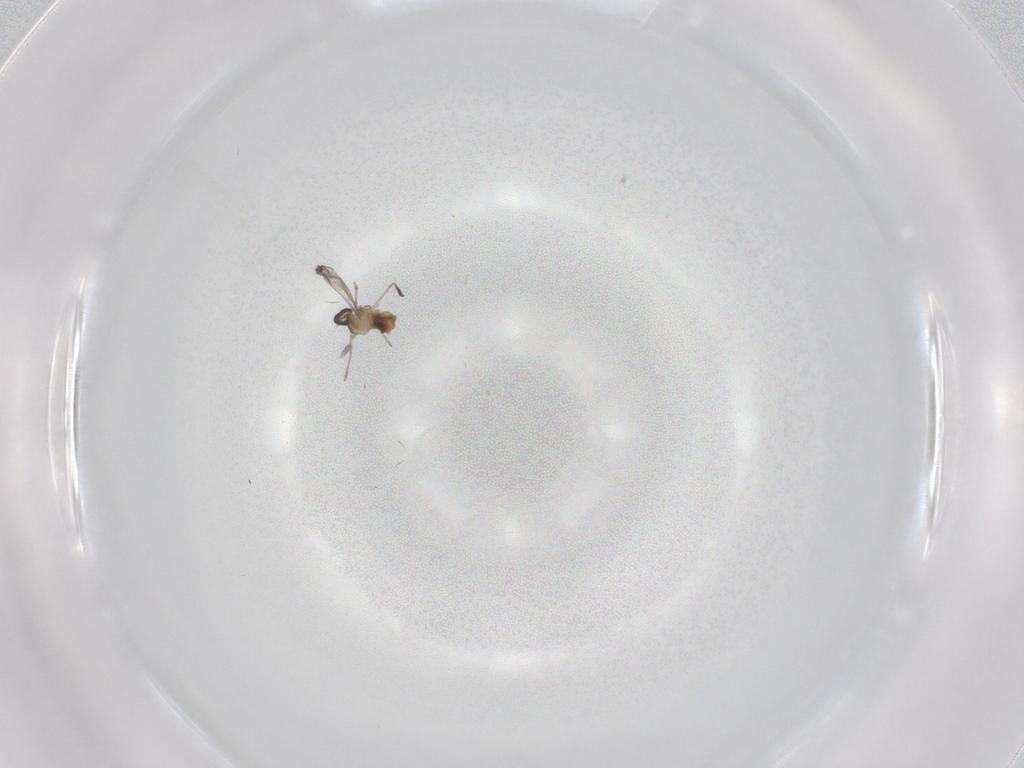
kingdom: Animalia
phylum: Arthropoda
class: Insecta
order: Diptera
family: Cecidomyiidae
